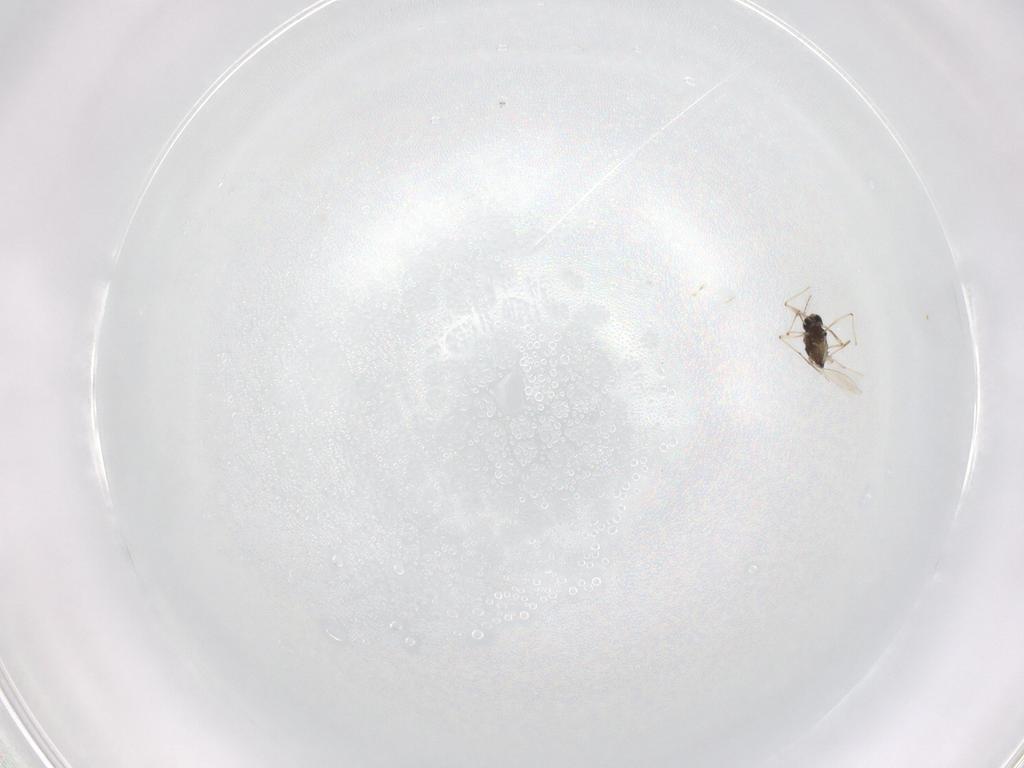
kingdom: Animalia
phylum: Arthropoda
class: Insecta
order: Diptera
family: Chironomidae
